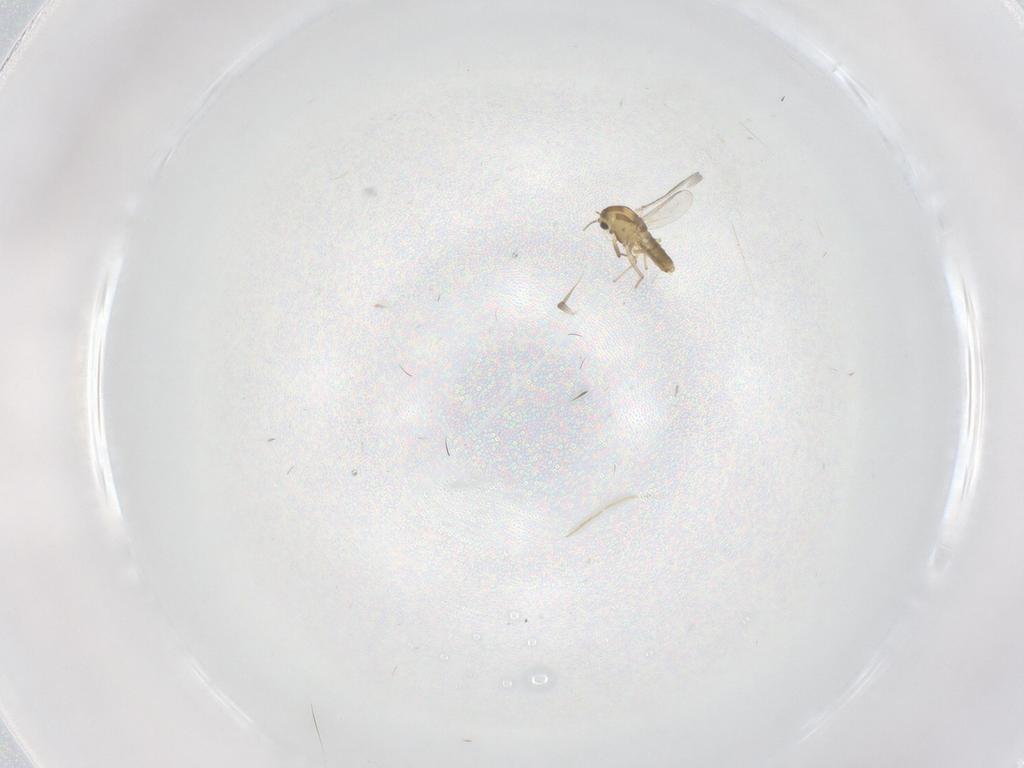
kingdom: Animalia
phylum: Arthropoda
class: Insecta
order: Diptera
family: Chironomidae
